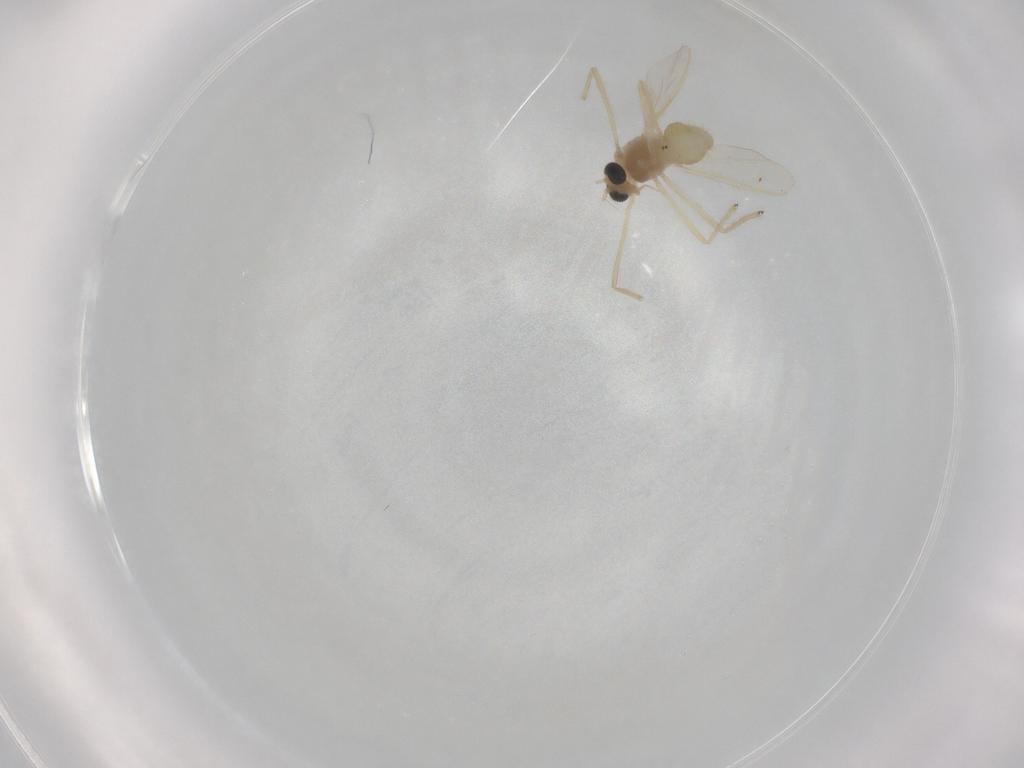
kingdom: Animalia
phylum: Arthropoda
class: Insecta
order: Diptera
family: Chironomidae
